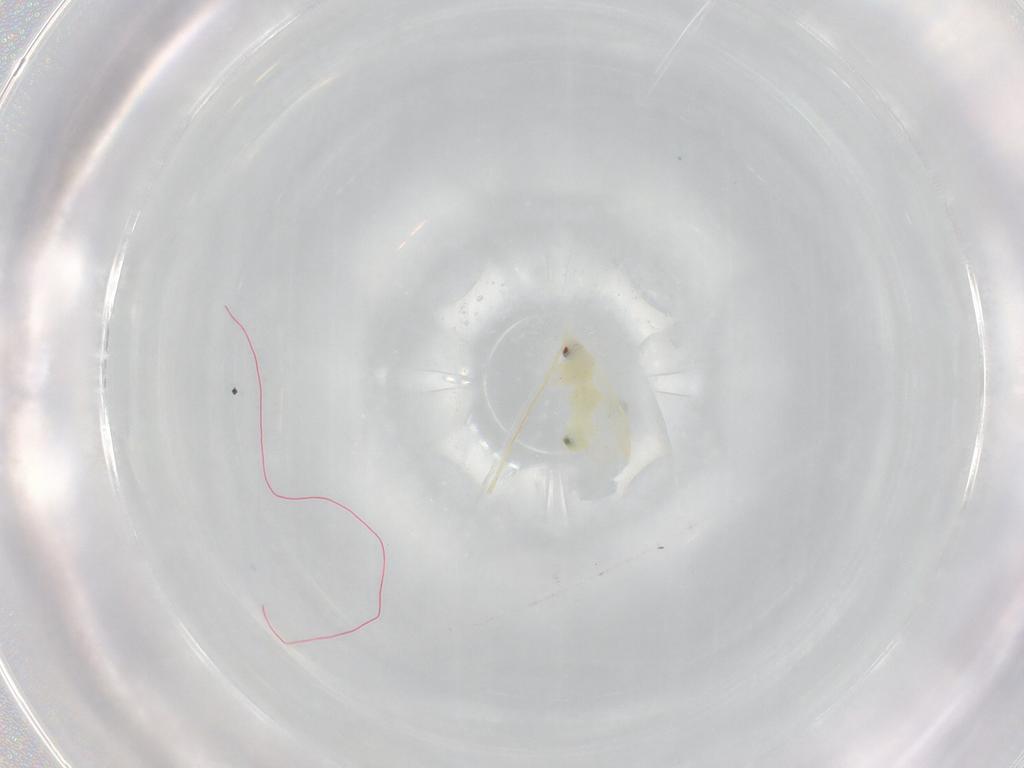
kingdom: Animalia
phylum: Arthropoda
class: Insecta
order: Hemiptera
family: Aleyrodidae
